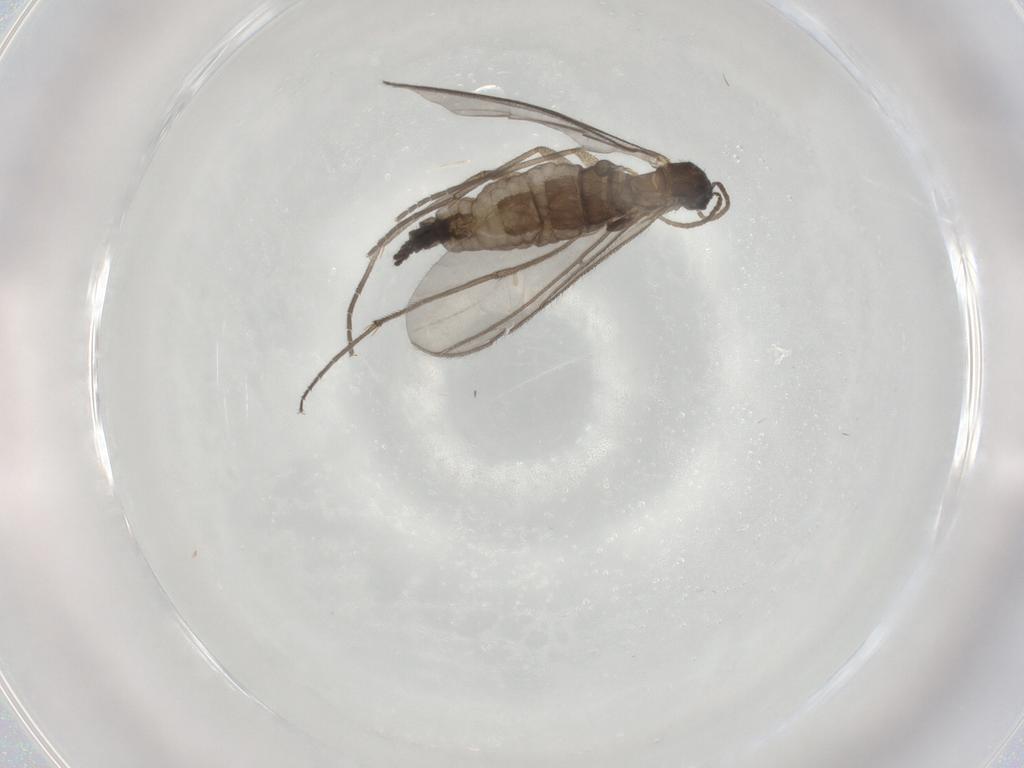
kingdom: Animalia
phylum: Arthropoda
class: Insecta
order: Diptera
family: Sciaridae
